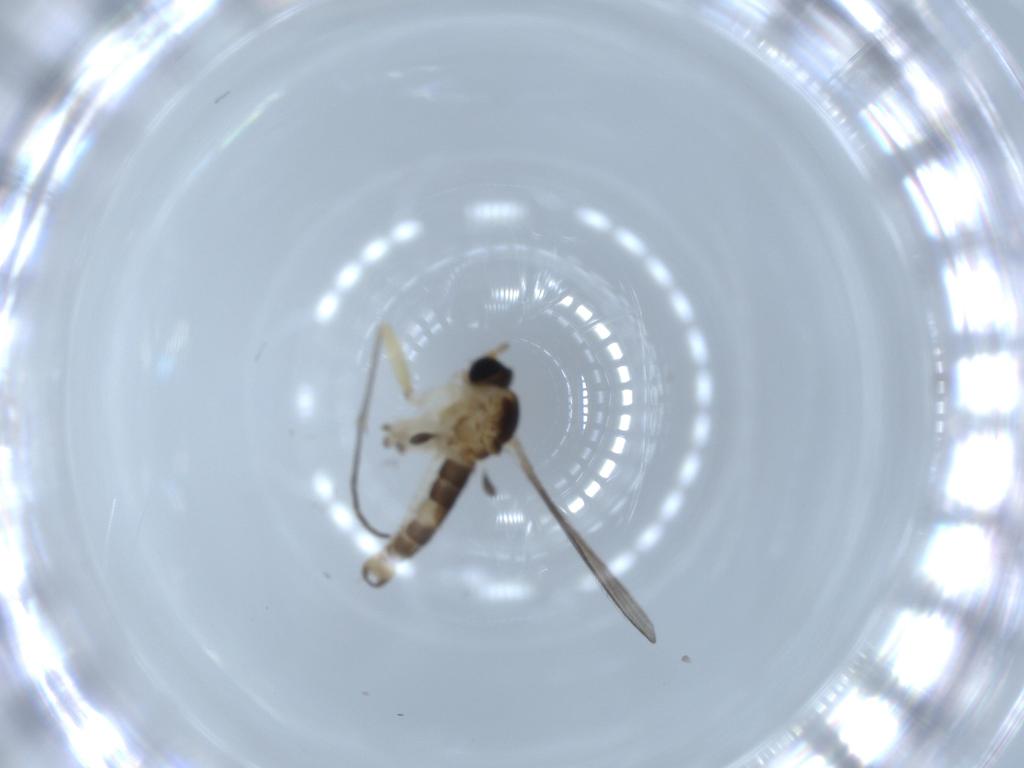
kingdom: Animalia
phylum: Arthropoda
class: Insecta
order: Diptera
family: Sciaridae
